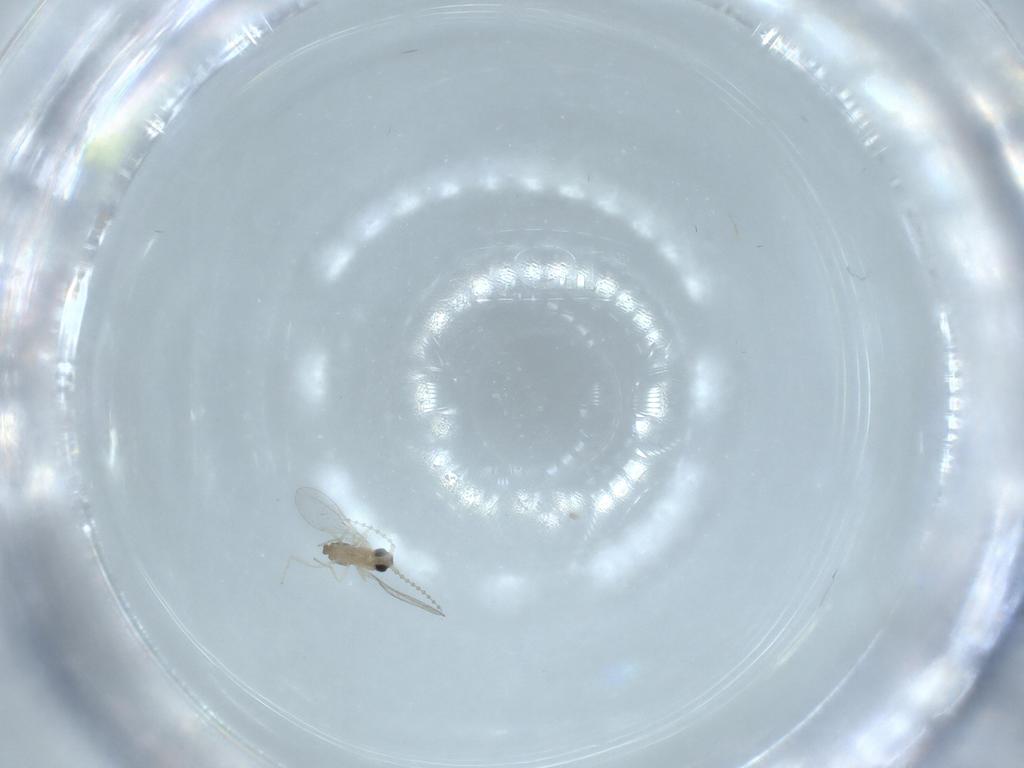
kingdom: Animalia
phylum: Arthropoda
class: Insecta
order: Diptera
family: Cecidomyiidae
